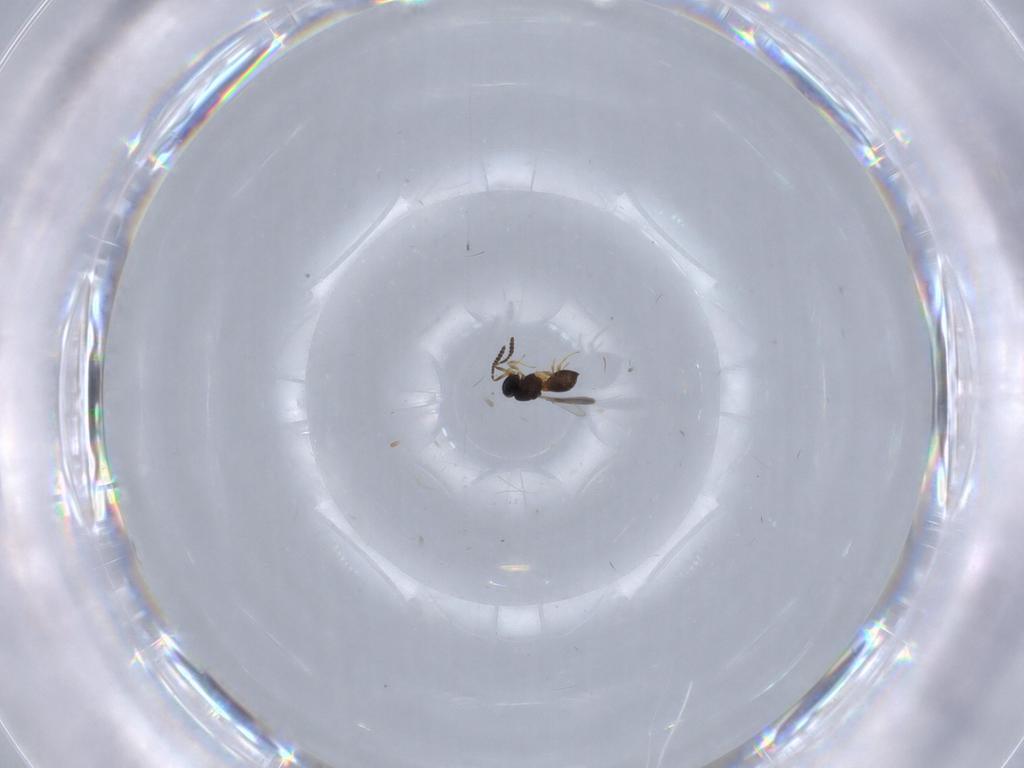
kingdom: Animalia
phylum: Arthropoda
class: Insecta
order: Hymenoptera
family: Scelionidae
